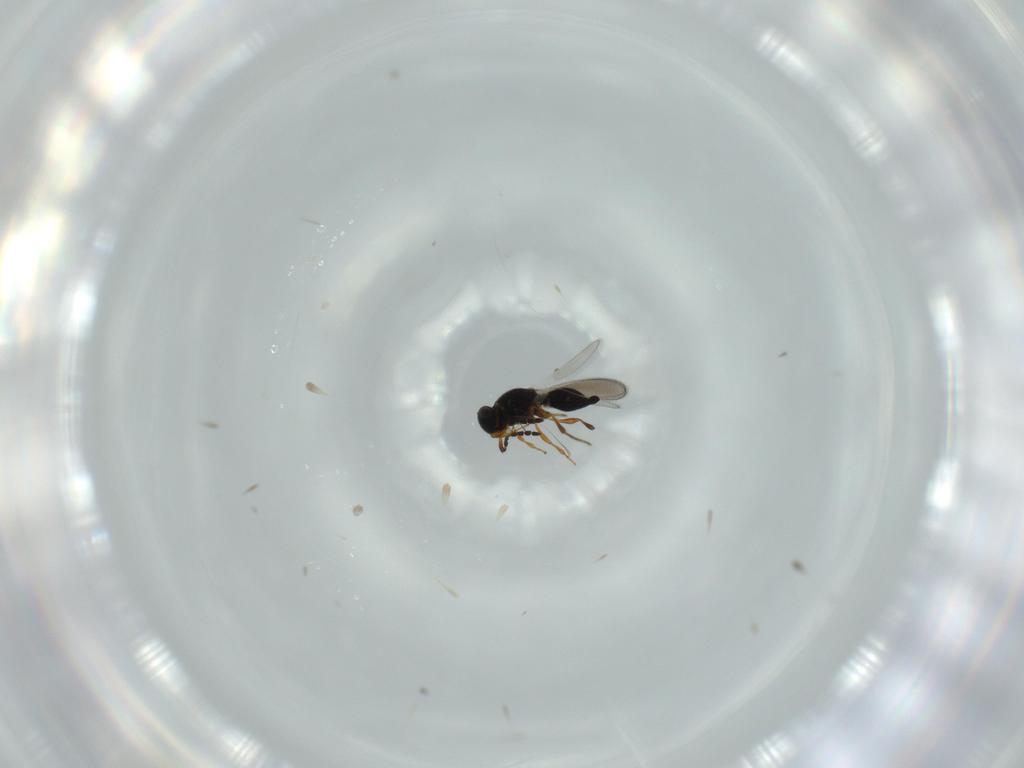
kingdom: Animalia
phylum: Arthropoda
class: Insecta
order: Hymenoptera
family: Platygastridae
